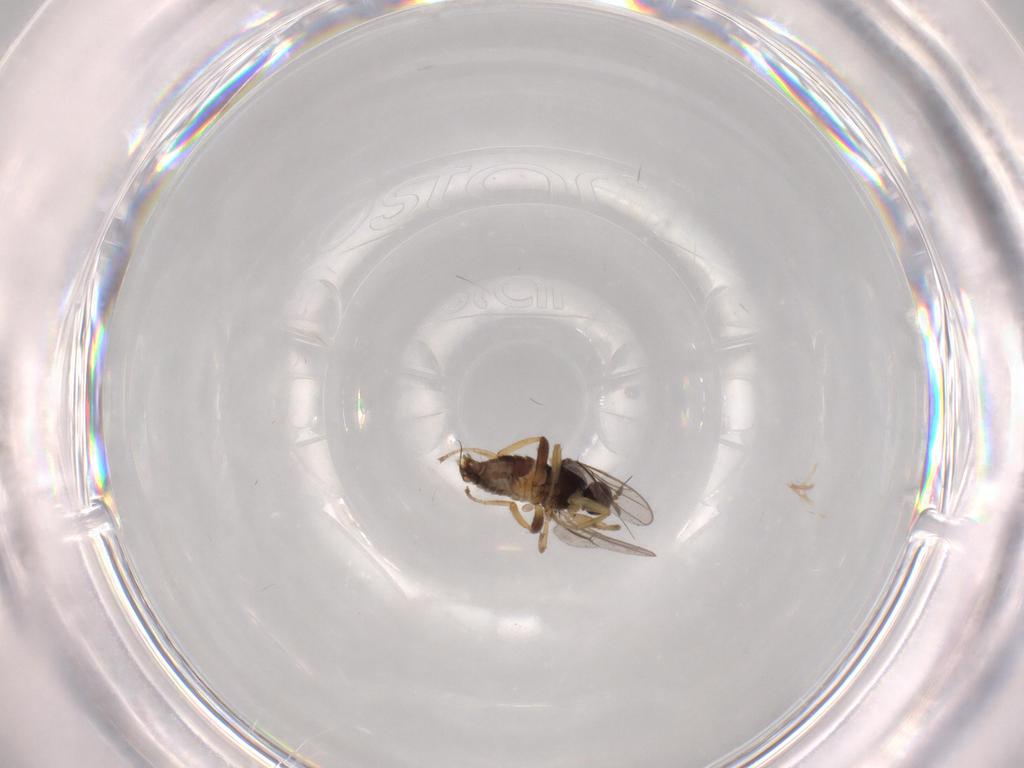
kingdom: Animalia
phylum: Arthropoda
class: Insecta
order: Diptera
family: Hybotidae
